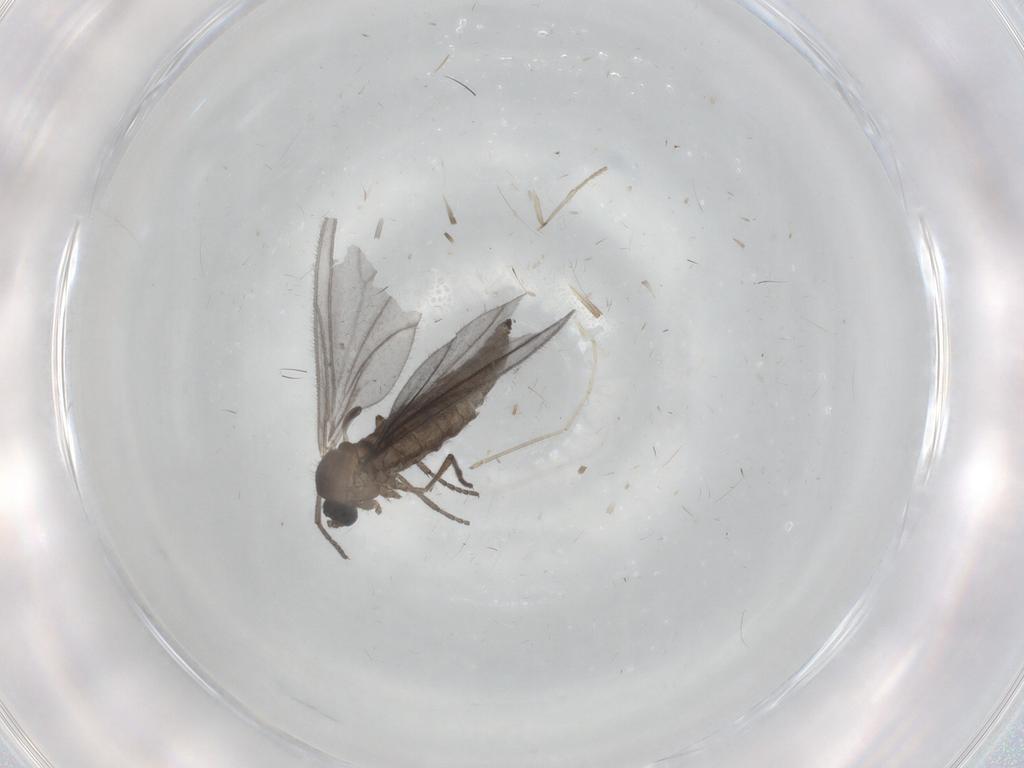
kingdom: Animalia
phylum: Arthropoda
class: Insecta
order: Diptera
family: Sciaridae
